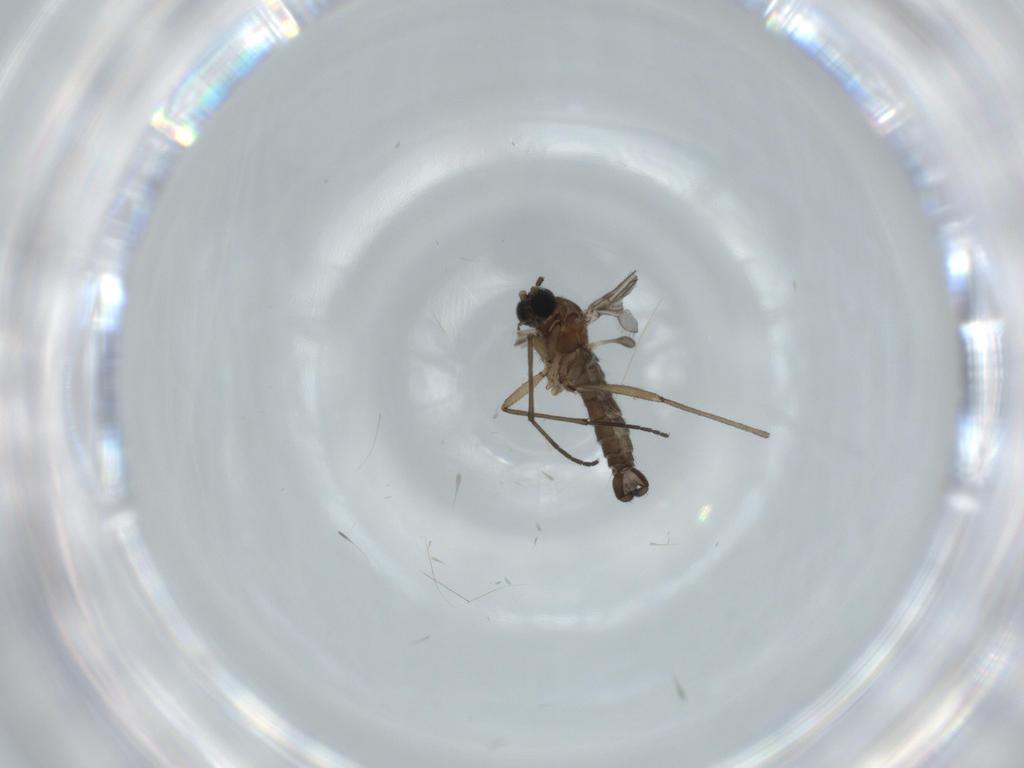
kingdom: Animalia
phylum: Arthropoda
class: Insecta
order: Diptera
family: Sciaridae
